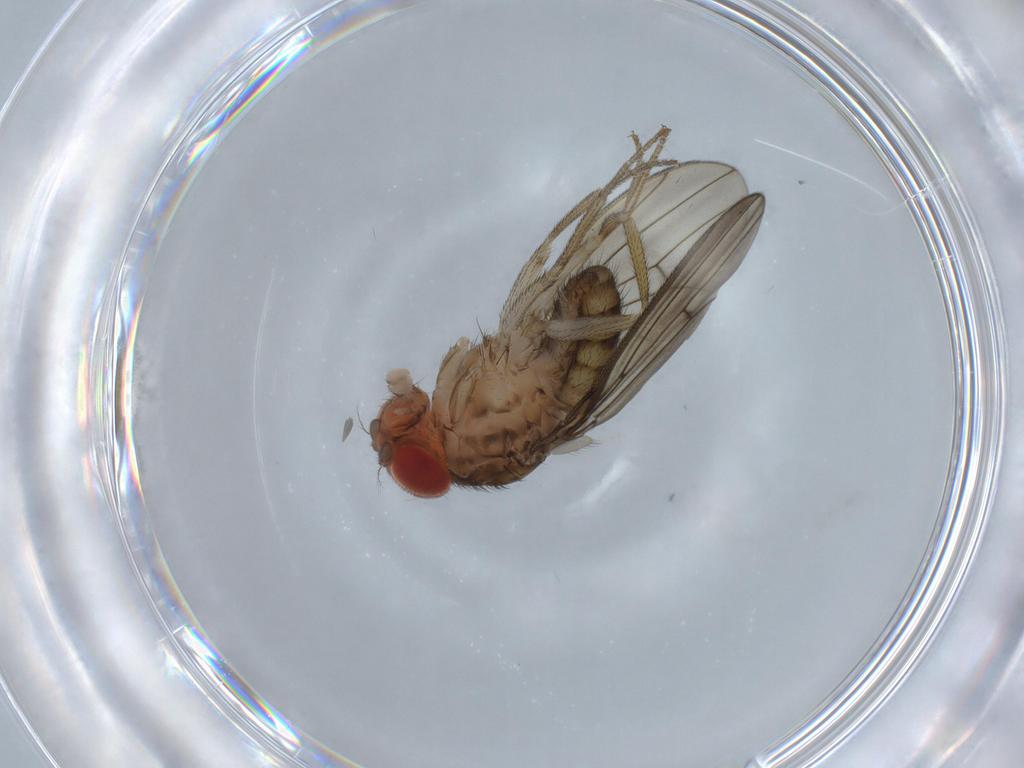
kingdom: Animalia
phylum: Arthropoda
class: Insecta
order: Diptera
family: Drosophilidae
